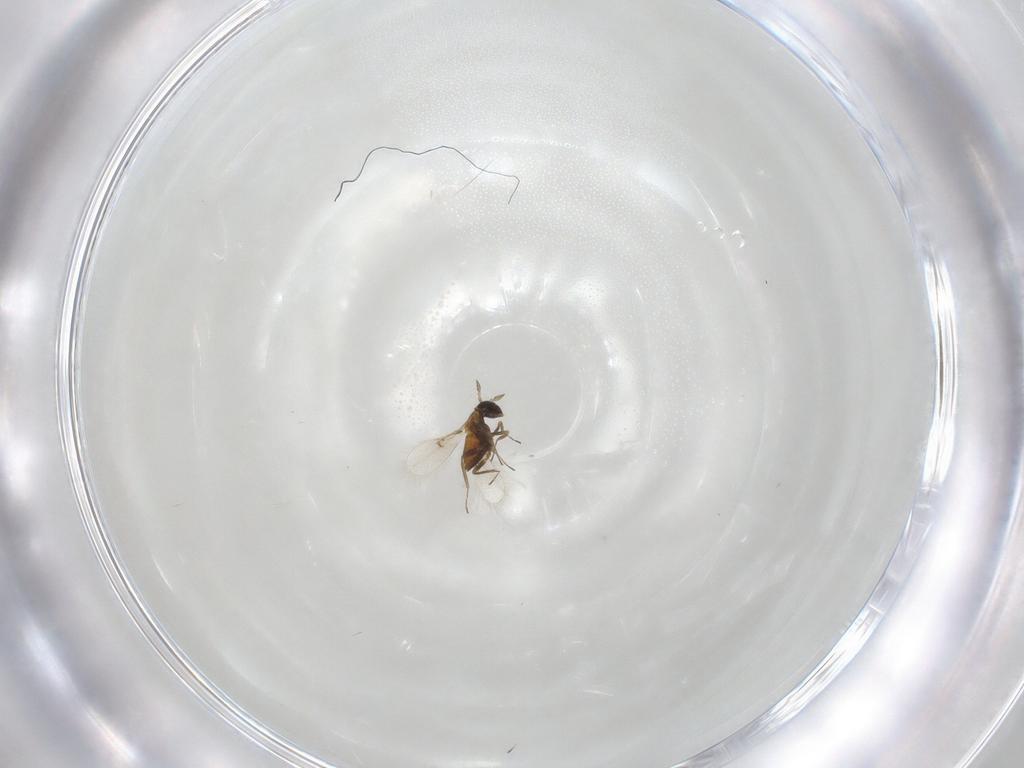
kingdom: Animalia
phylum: Arthropoda
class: Insecta
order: Hymenoptera
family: Trichogrammatidae
